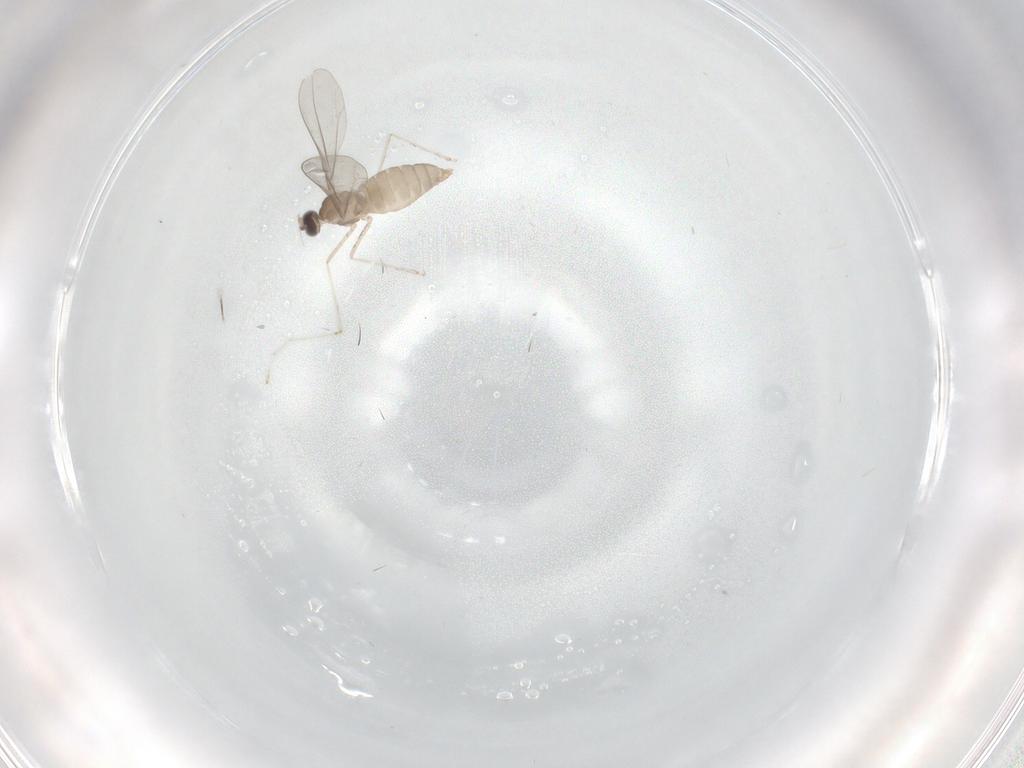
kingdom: Animalia
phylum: Arthropoda
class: Insecta
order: Diptera
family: Cecidomyiidae
